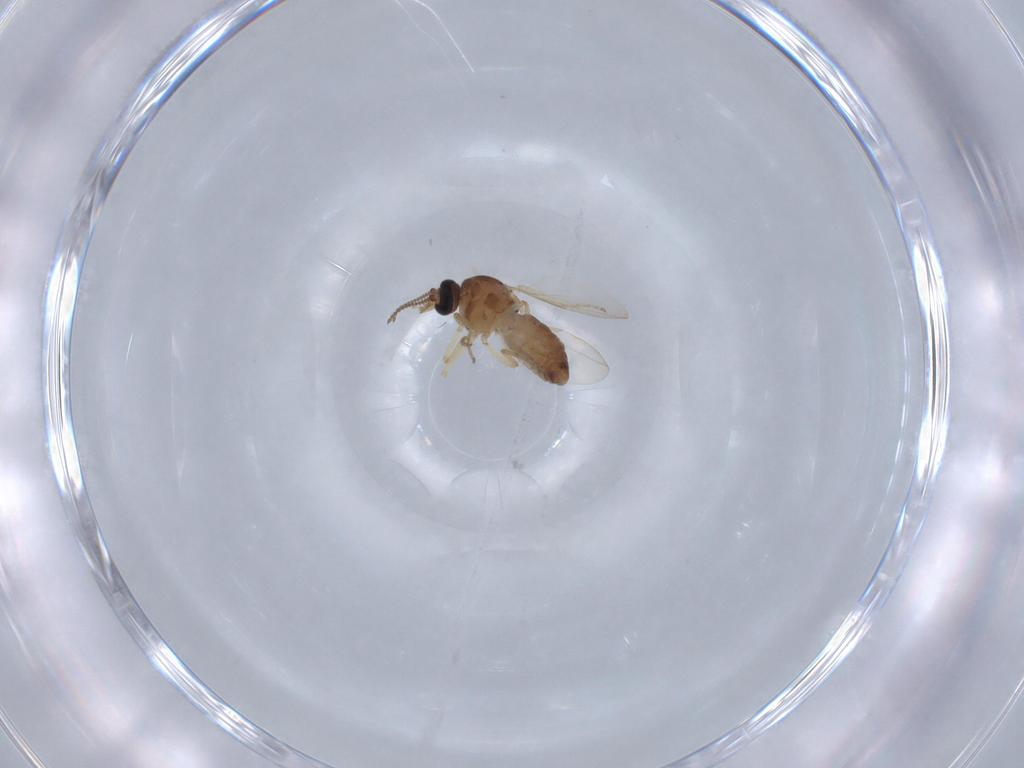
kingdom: Animalia
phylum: Arthropoda
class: Insecta
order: Diptera
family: Ceratopogonidae
